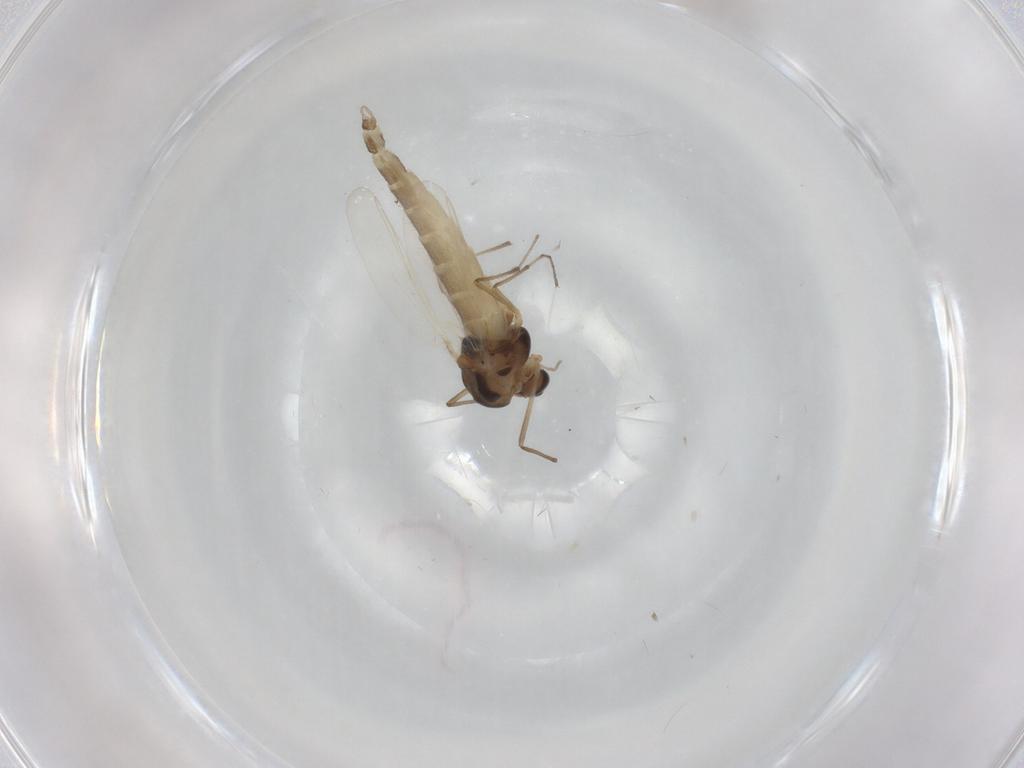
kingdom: Animalia
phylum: Arthropoda
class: Insecta
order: Diptera
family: Chironomidae
